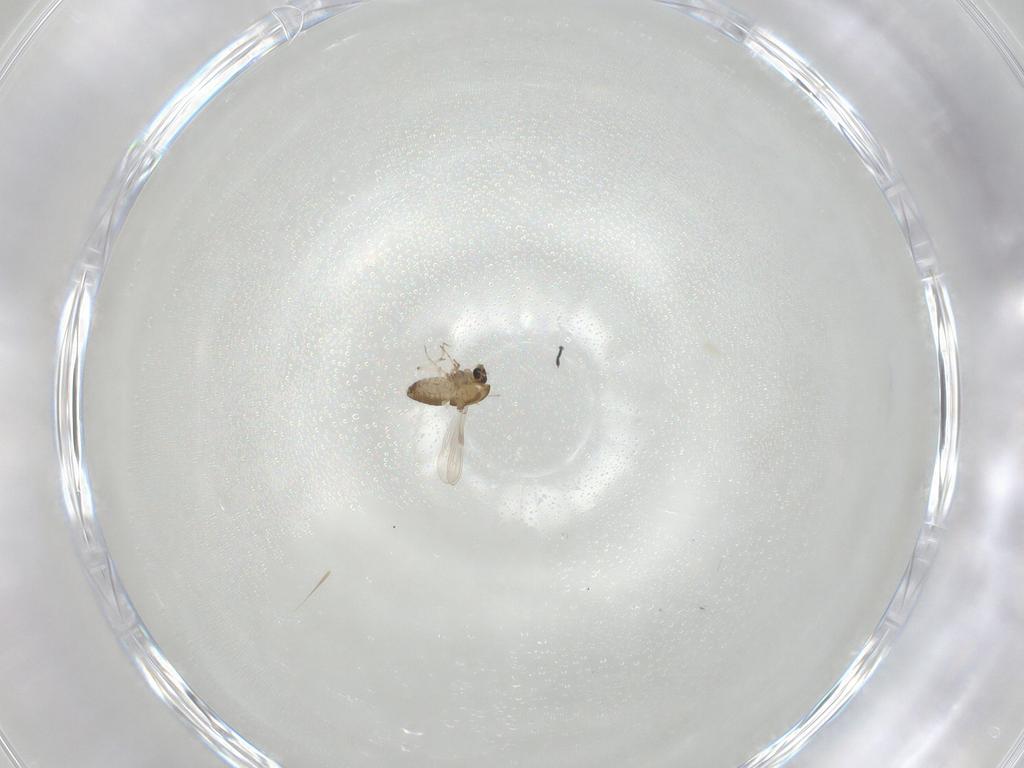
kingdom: Animalia
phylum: Arthropoda
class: Insecta
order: Diptera
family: Chironomidae
